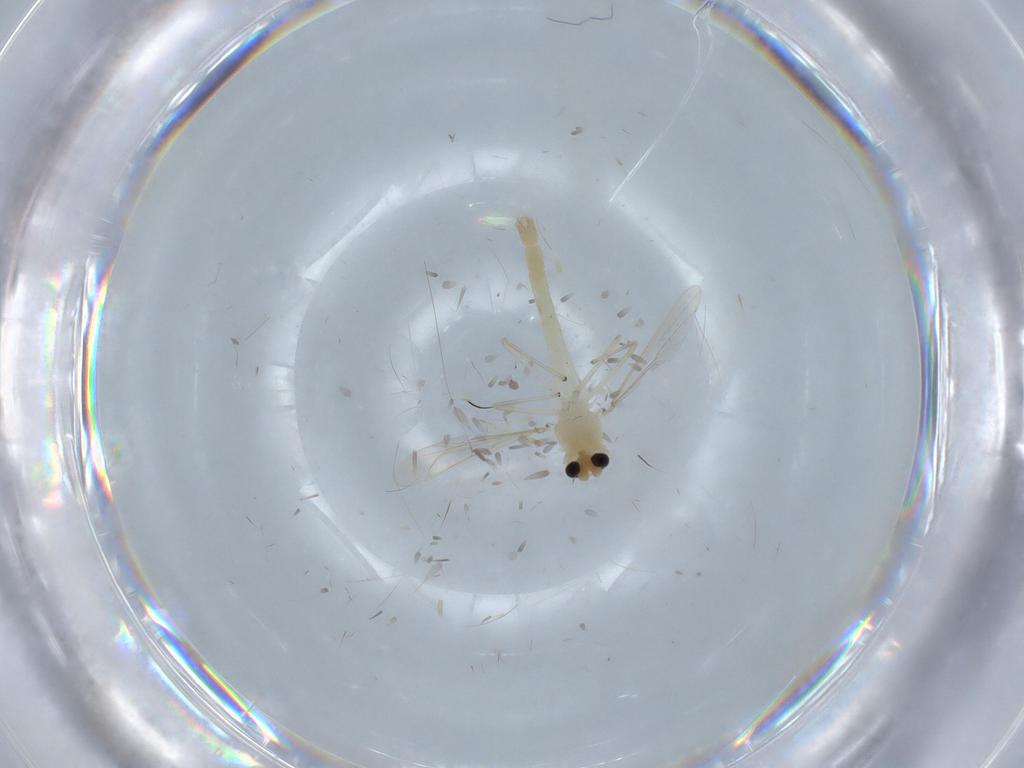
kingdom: Animalia
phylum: Arthropoda
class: Insecta
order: Diptera
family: Chironomidae
